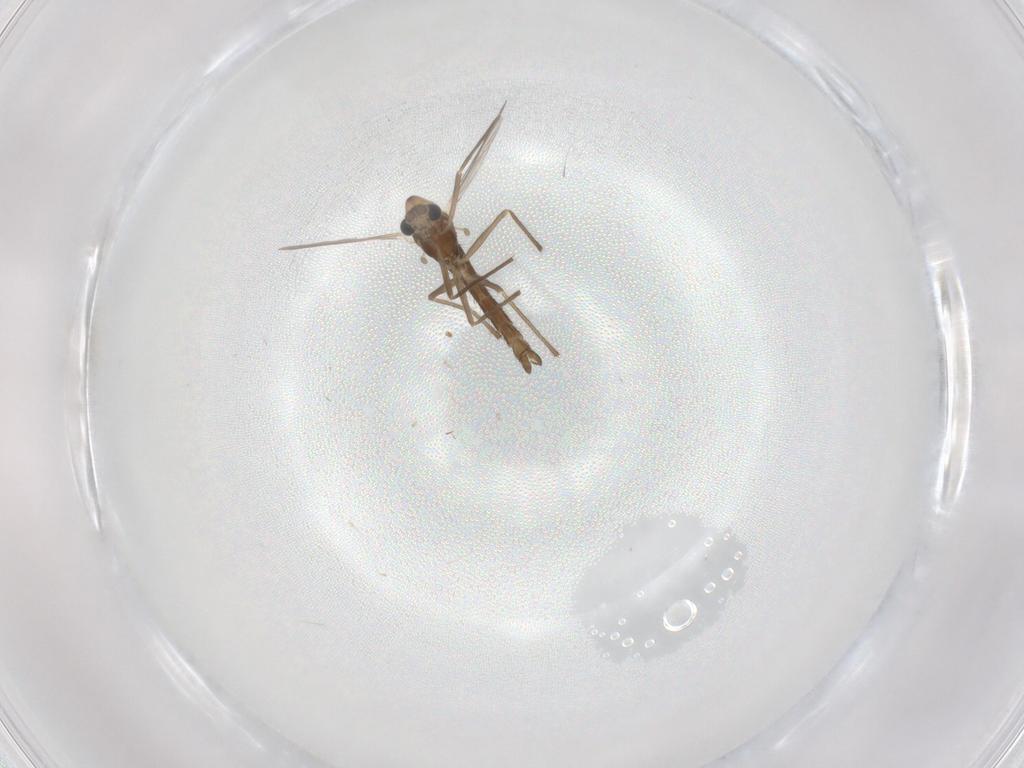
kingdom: Animalia
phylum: Arthropoda
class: Insecta
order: Diptera
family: Chironomidae
